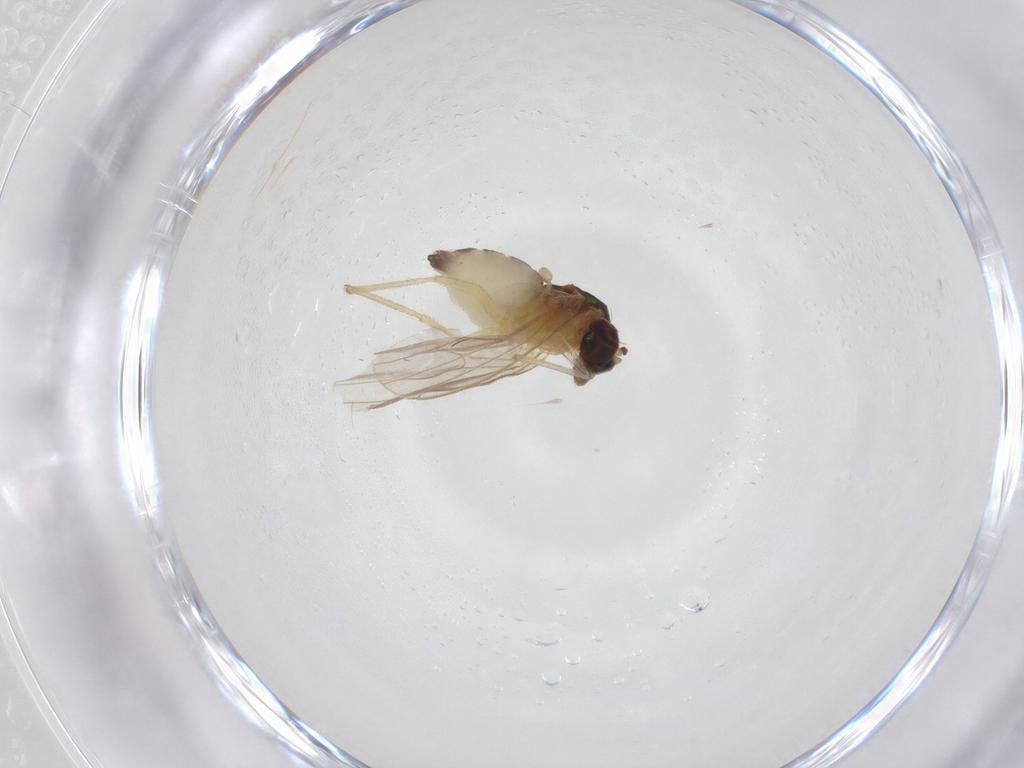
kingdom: Animalia
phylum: Arthropoda
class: Insecta
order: Diptera
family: Dolichopodidae
